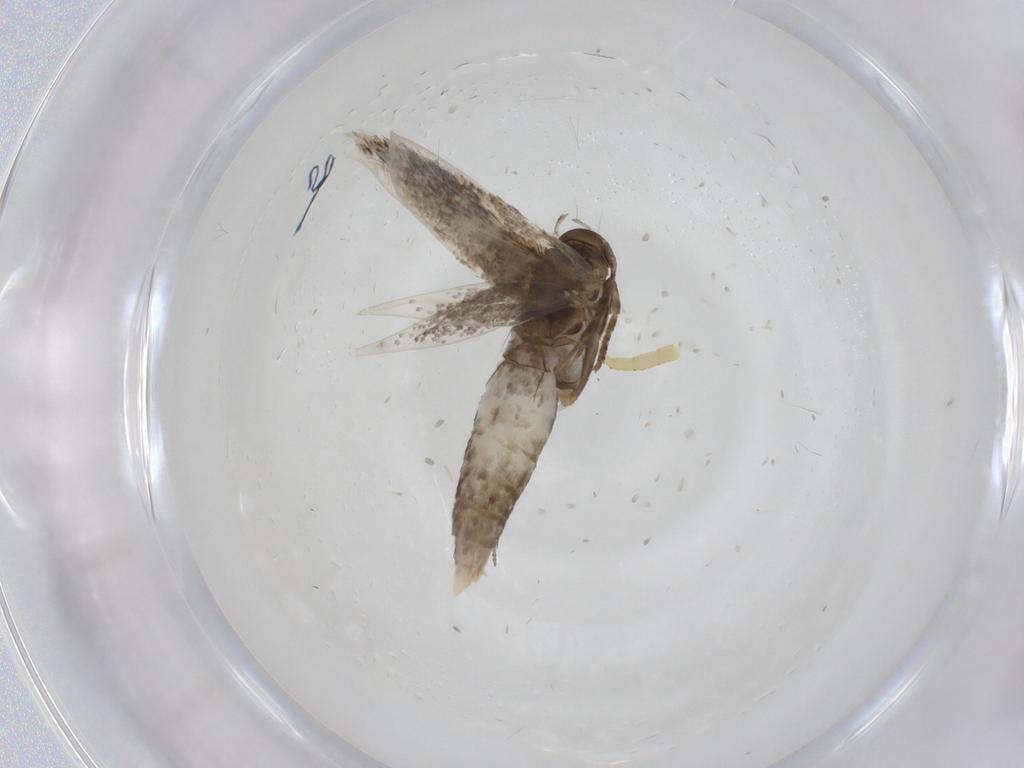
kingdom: Animalia
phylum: Arthropoda
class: Insecta
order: Lepidoptera
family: Elachistidae
